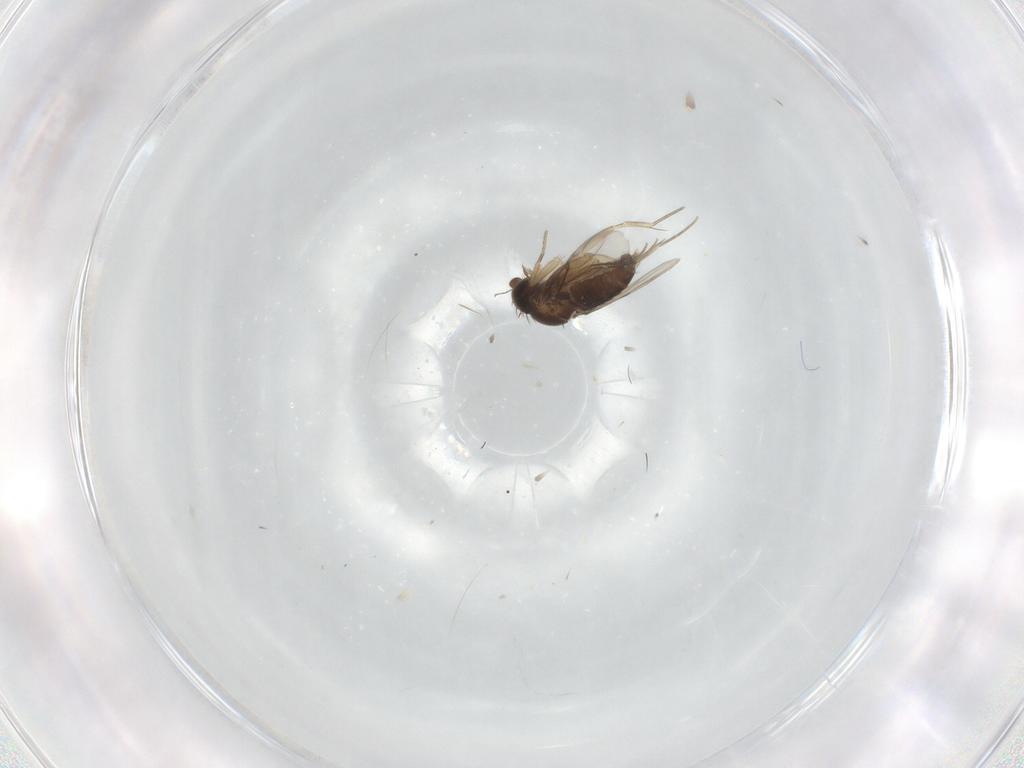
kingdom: Animalia
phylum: Arthropoda
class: Insecta
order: Diptera
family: Phoridae
